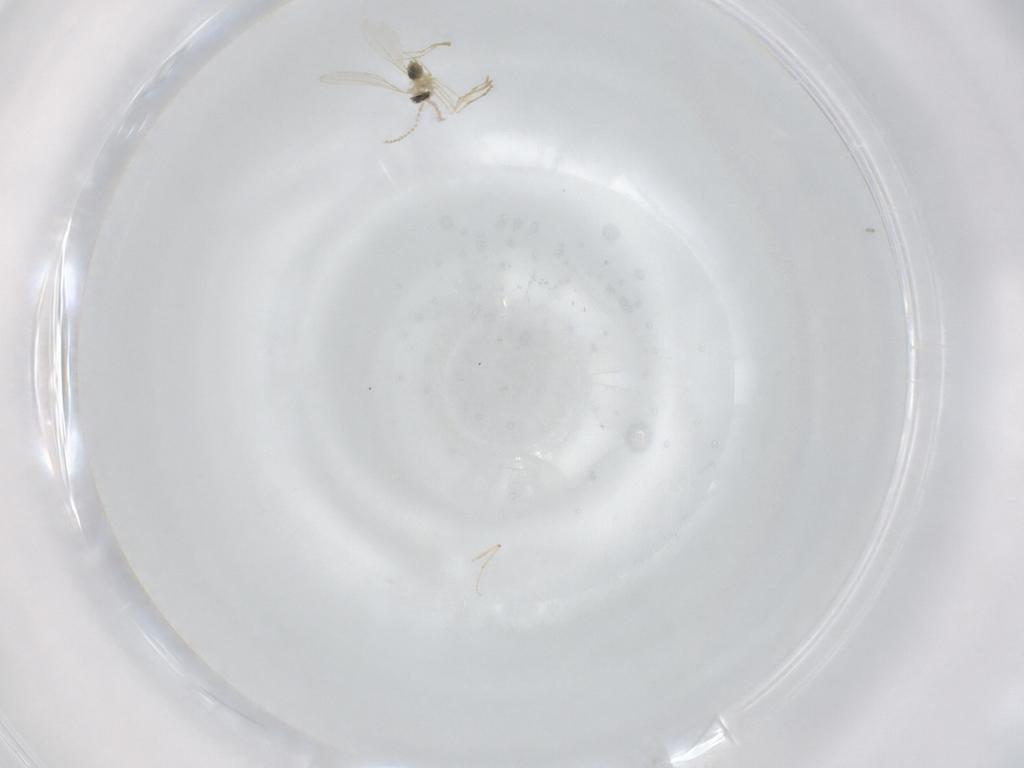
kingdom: Animalia
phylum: Arthropoda
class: Insecta
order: Diptera
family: Cecidomyiidae
